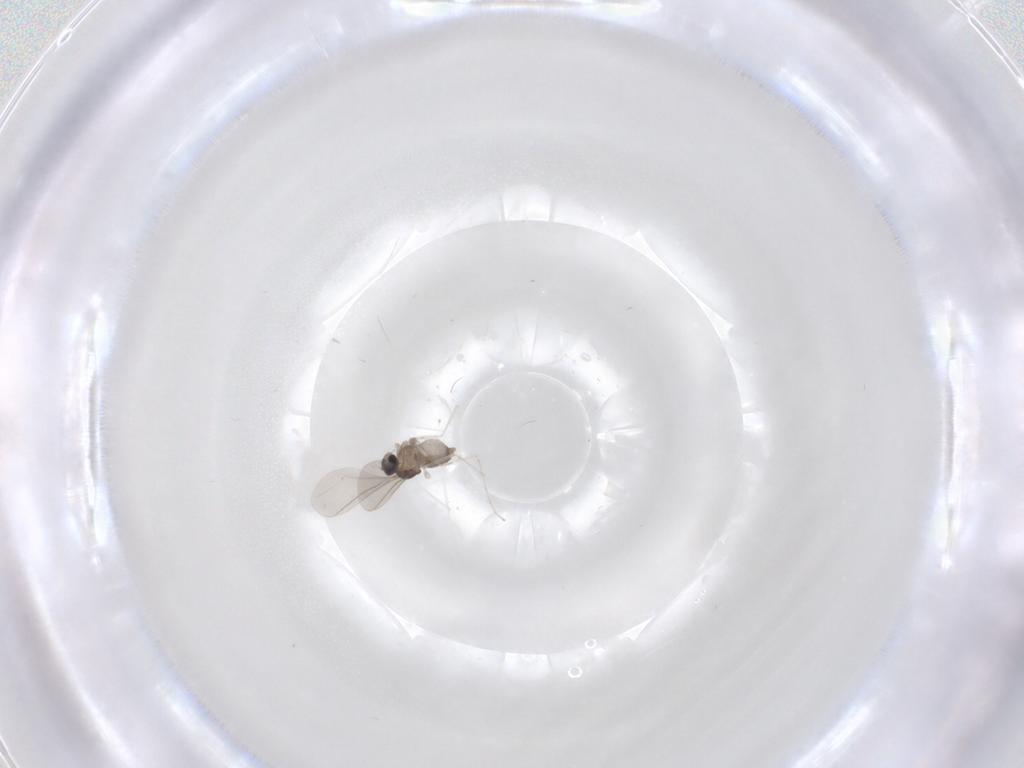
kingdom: Animalia
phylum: Arthropoda
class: Insecta
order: Diptera
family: Cecidomyiidae
